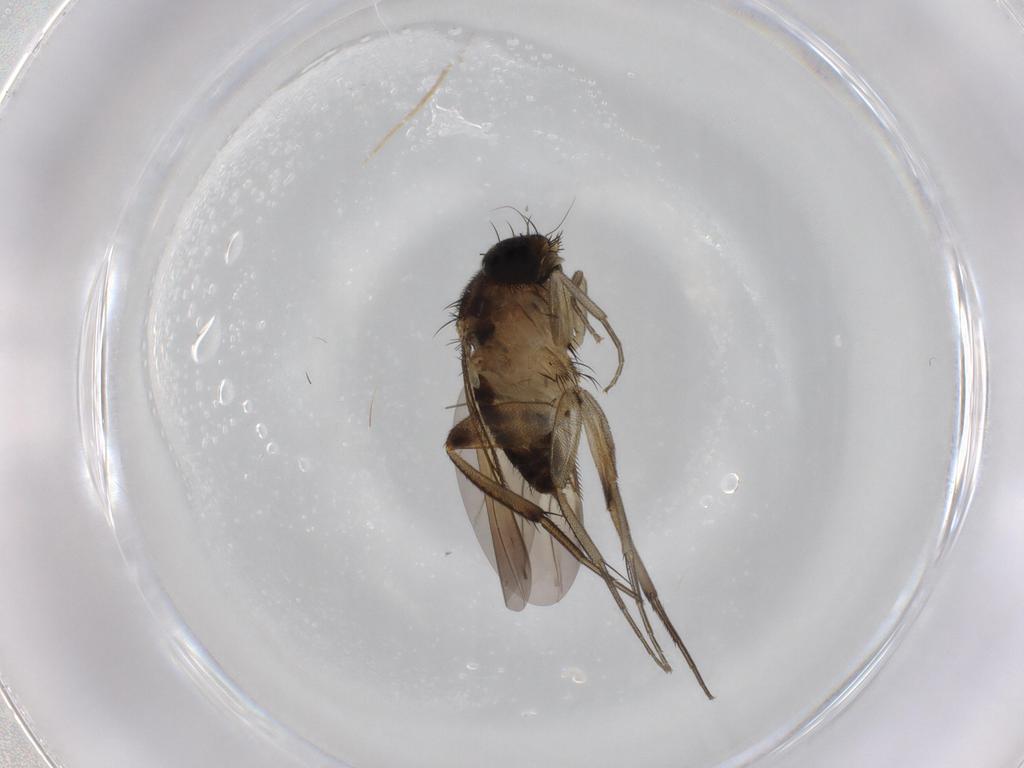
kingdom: Animalia
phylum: Arthropoda
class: Insecta
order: Diptera
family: Phoridae
